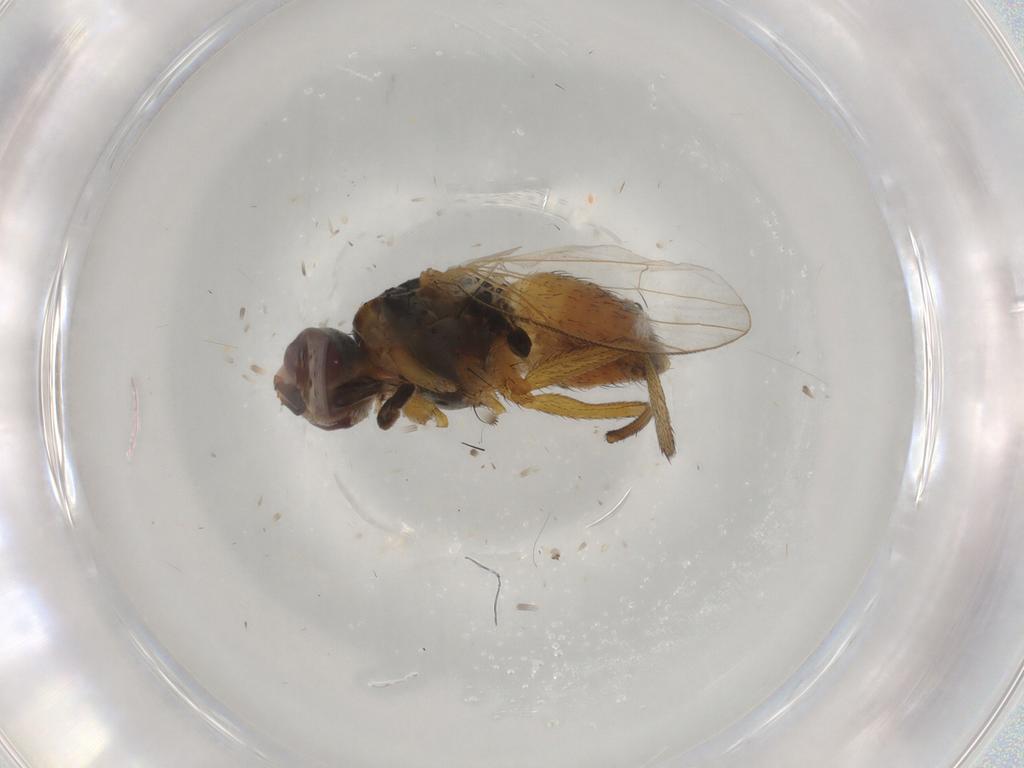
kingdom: Animalia
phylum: Arthropoda
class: Insecta
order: Diptera
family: Muscidae
